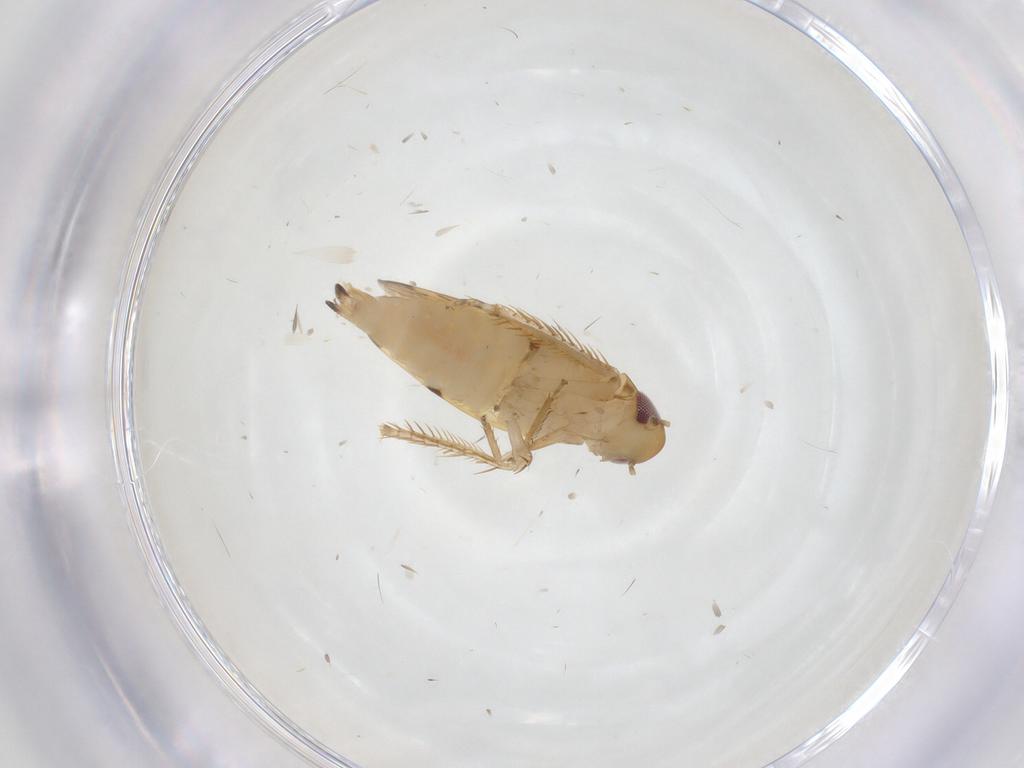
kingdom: Animalia
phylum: Arthropoda
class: Insecta
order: Hemiptera
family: Cicadellidae
